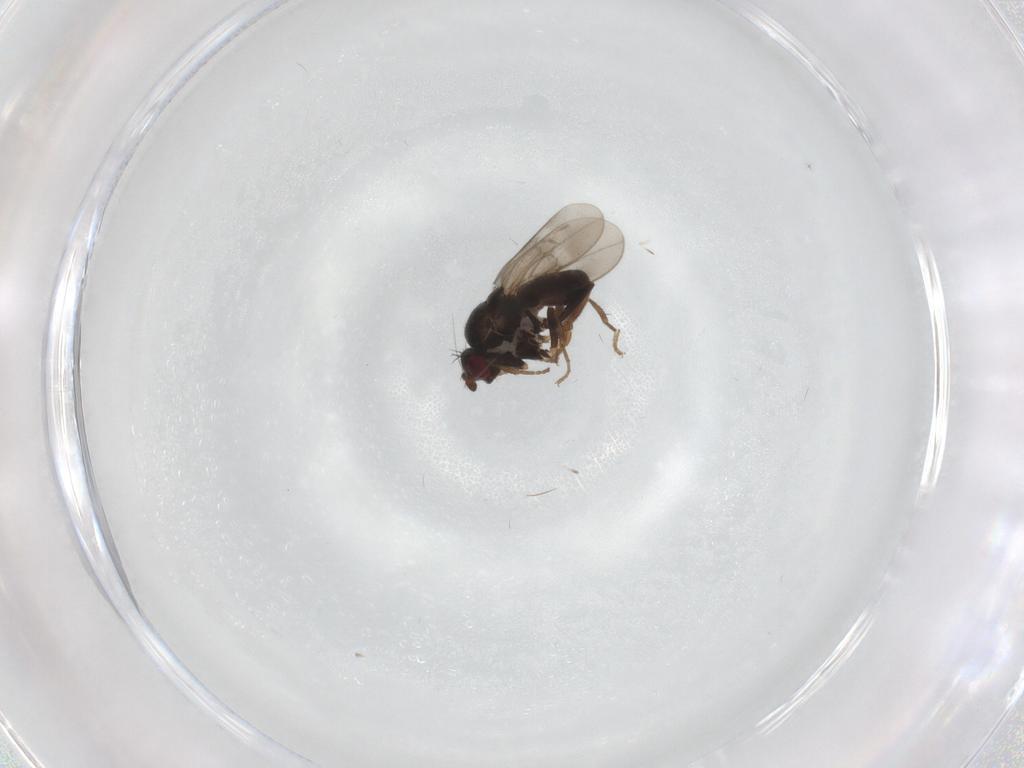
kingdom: Animalia
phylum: Arthropoda
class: Insecta
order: Diptera
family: Sphaeroceridae
